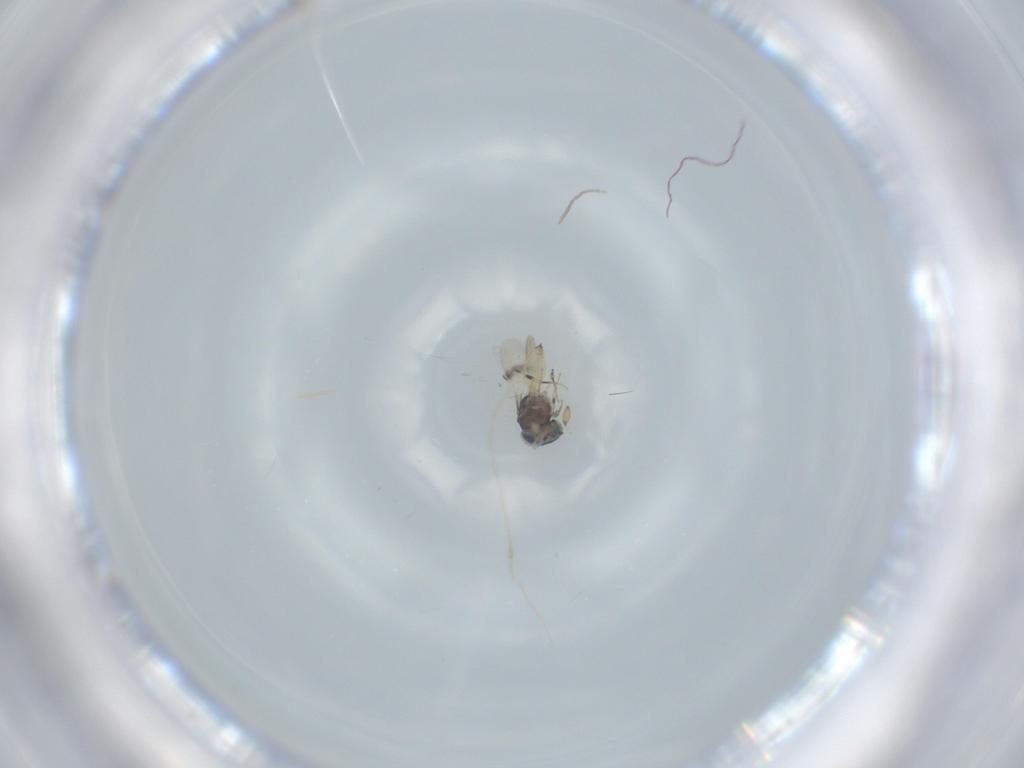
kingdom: Animalia
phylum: Arthropoda
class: Insecta
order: Hymenoptera
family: Scelionidae
